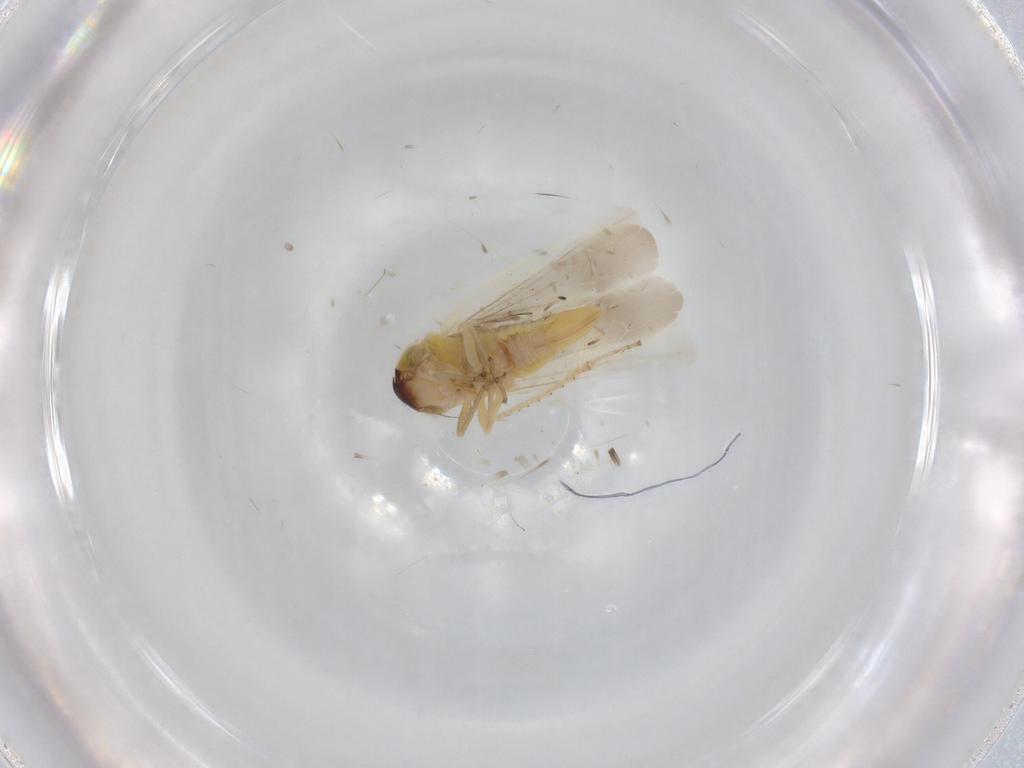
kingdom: Animalia
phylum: Arthropoda
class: Insecta
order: Hemiptera
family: Cicadellidae
